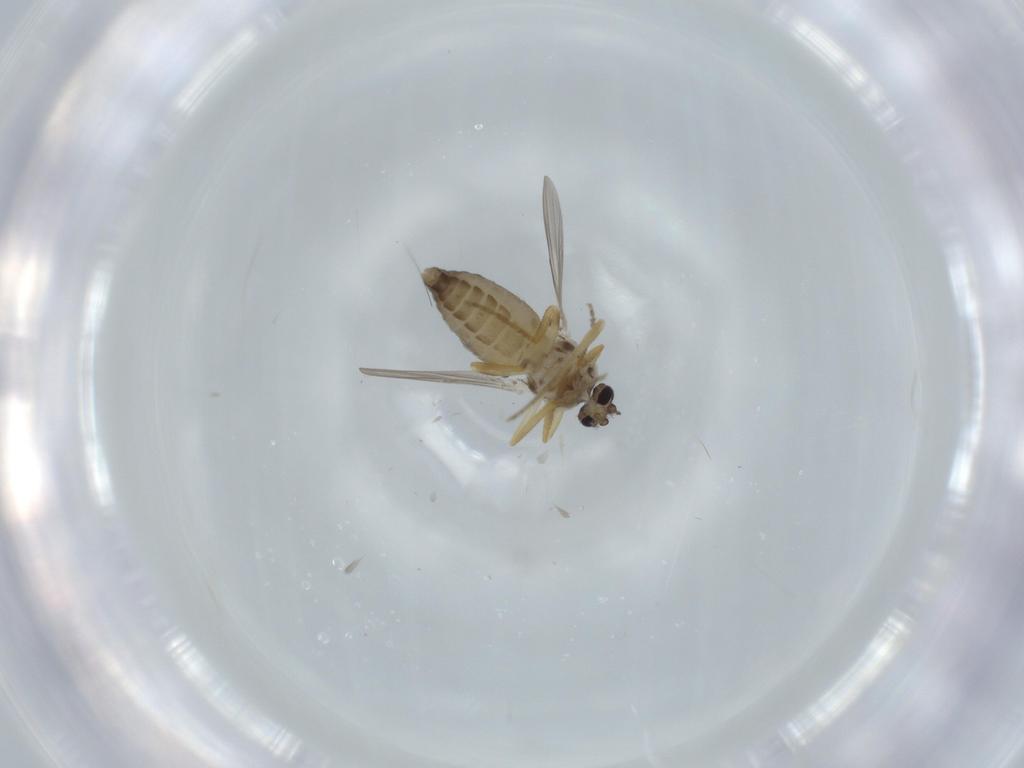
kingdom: Animalia
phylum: Arthropoda
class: Insecta
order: Diptera
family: Ceratopogonidae
